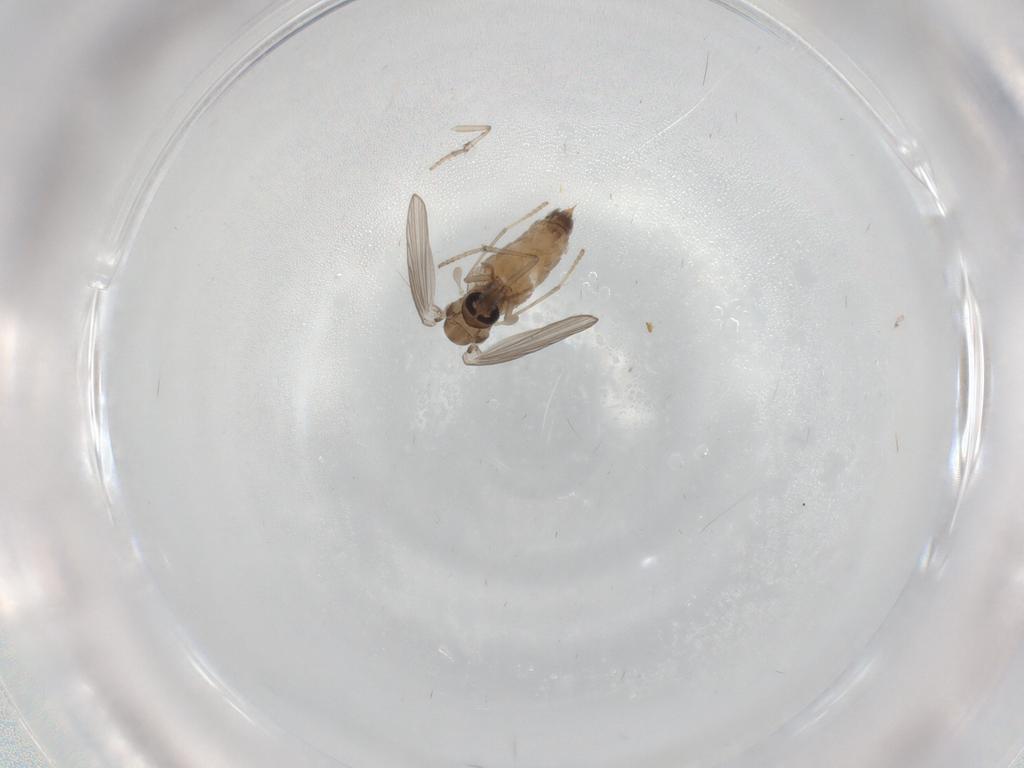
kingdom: Animalia
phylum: Arthropoda
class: Insecta
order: Diptera
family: Psychodidae
